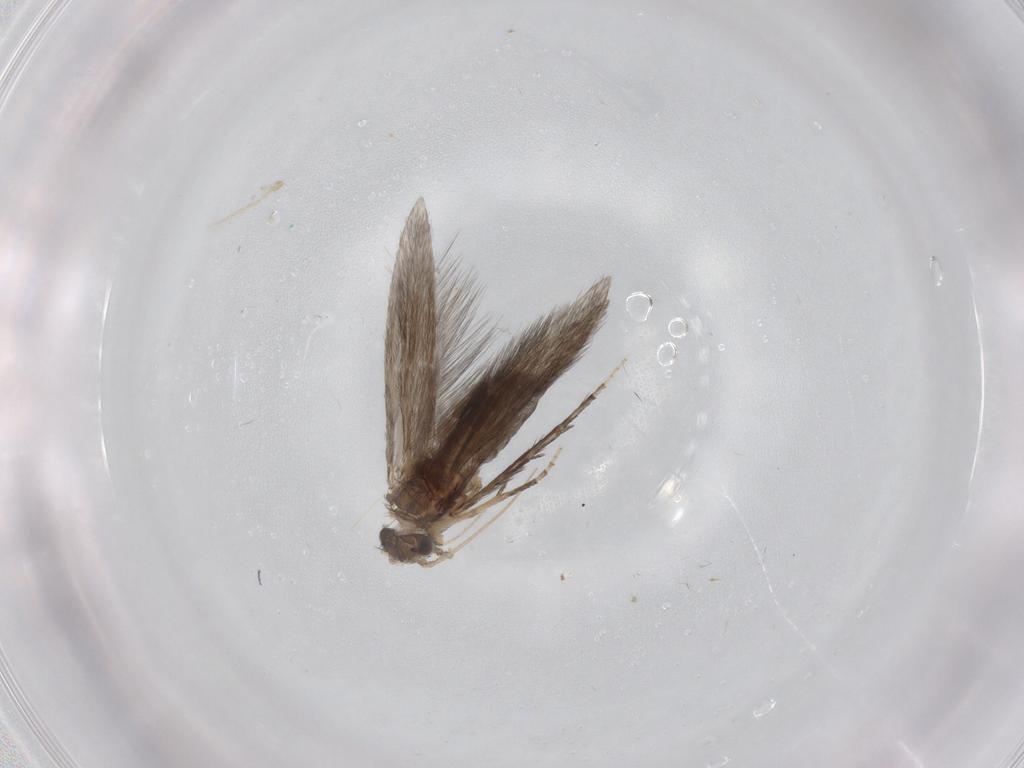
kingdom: Animalia
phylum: Arthropoda
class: Insecta
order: Trichoptera
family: Hydroptilidae
